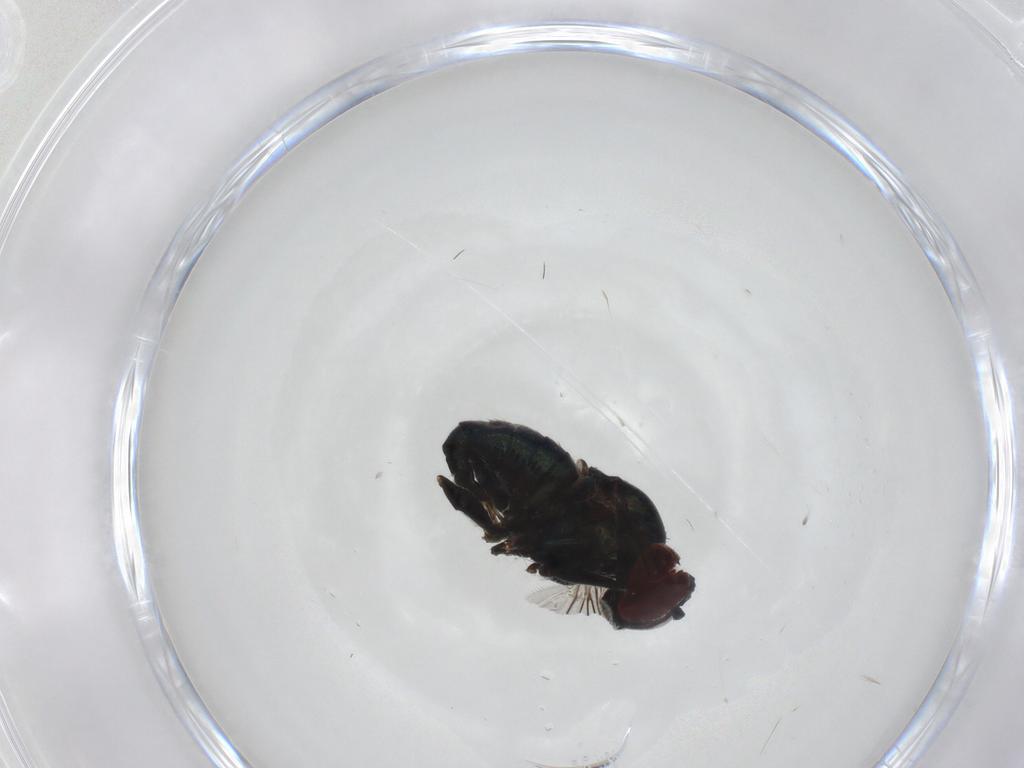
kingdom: Animalia
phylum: Arthropoda
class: Insecta
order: Diptera
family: Dolichopodidae
